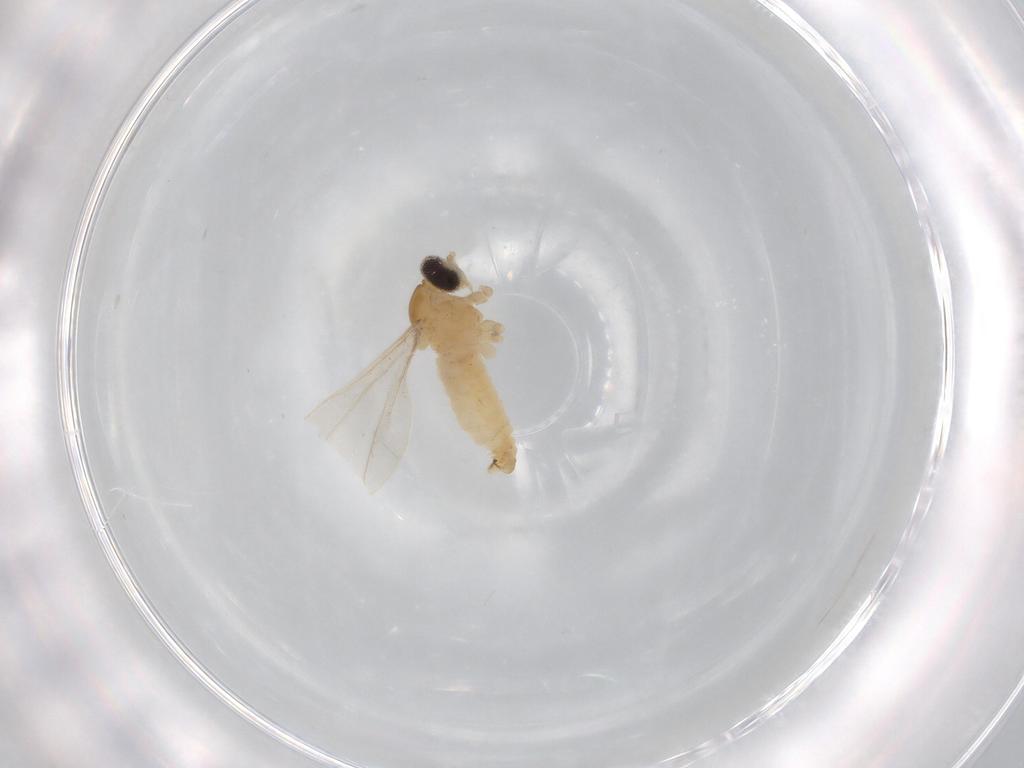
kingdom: Animalia
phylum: Arthropoda
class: Insecta
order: Diptera
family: Cecidomyiidae
